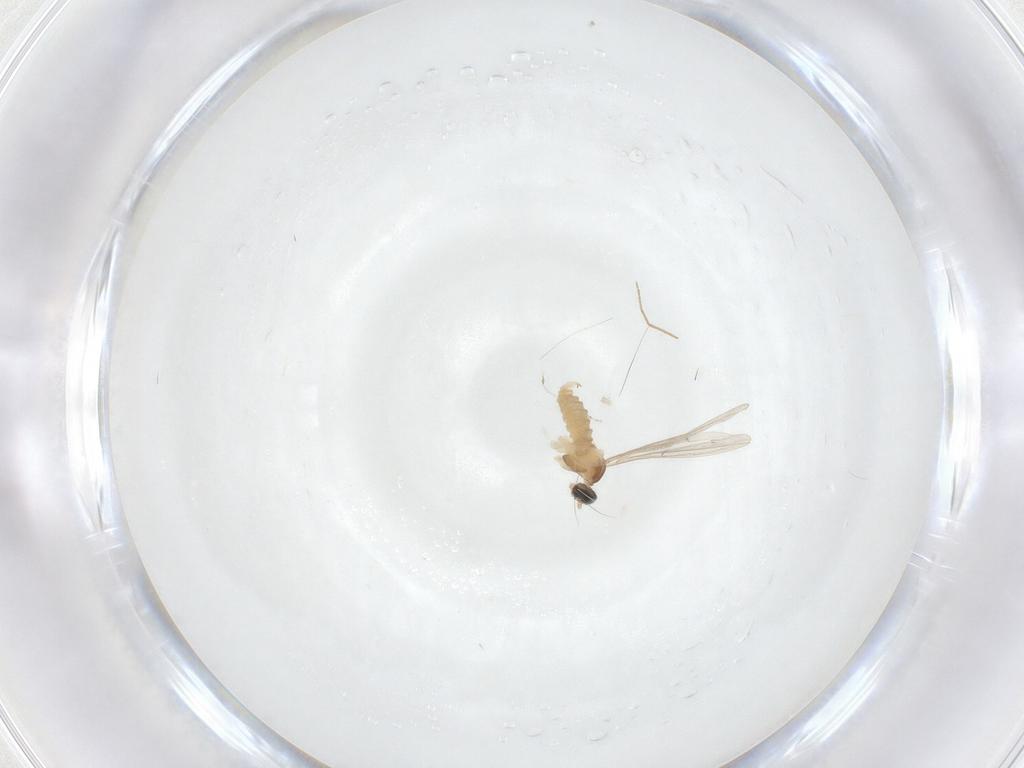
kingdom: Animalia
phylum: Arthropoda
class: Insecta
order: Diptera
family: Cecidomyiidae
